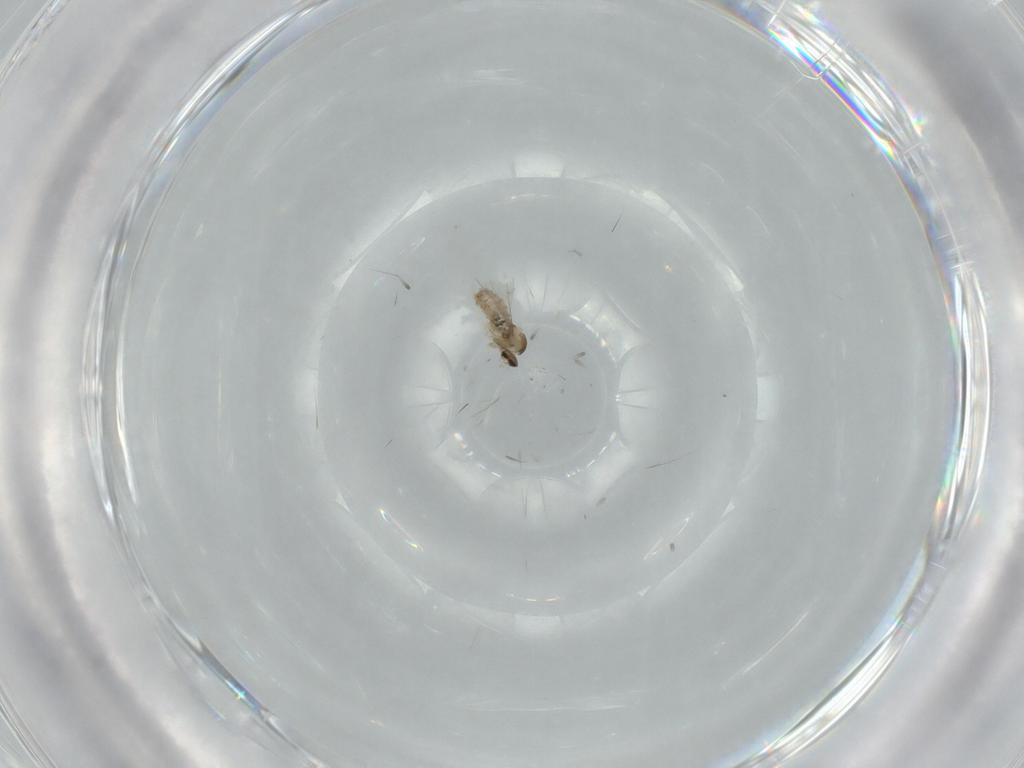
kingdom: Animalia
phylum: Arthropoda
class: Insecta
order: Diptera
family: Cecidomyiidae
